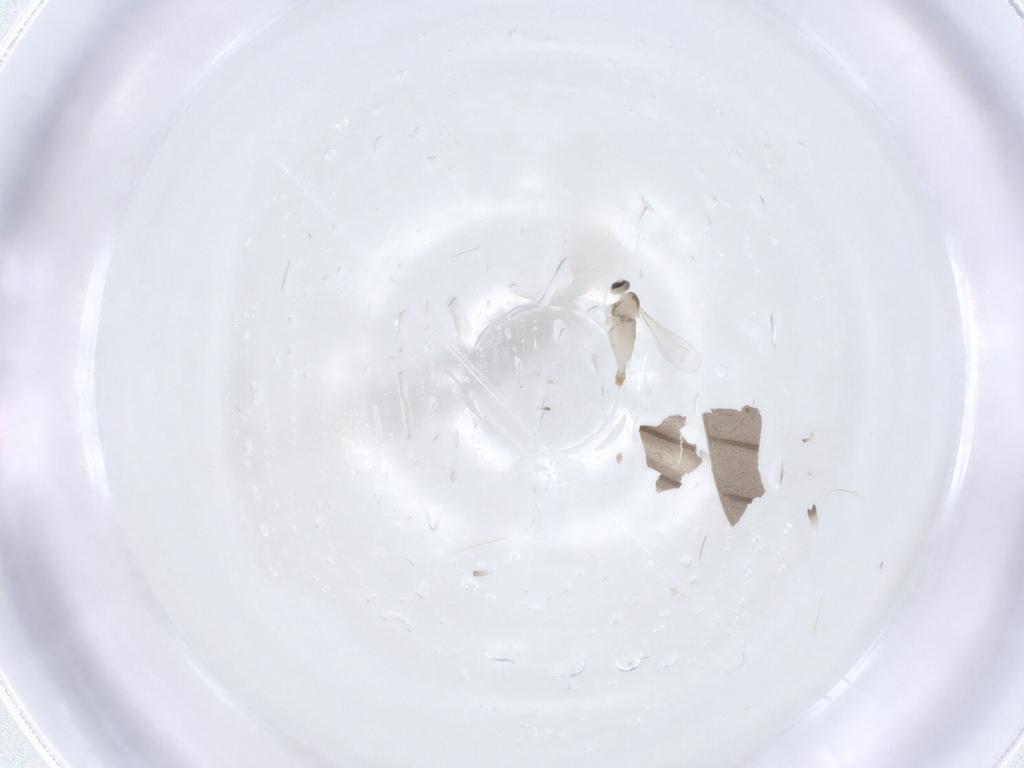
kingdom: Animalia
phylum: Arthropoda
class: Insecta
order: Diptera
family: Cecidomyiidae
